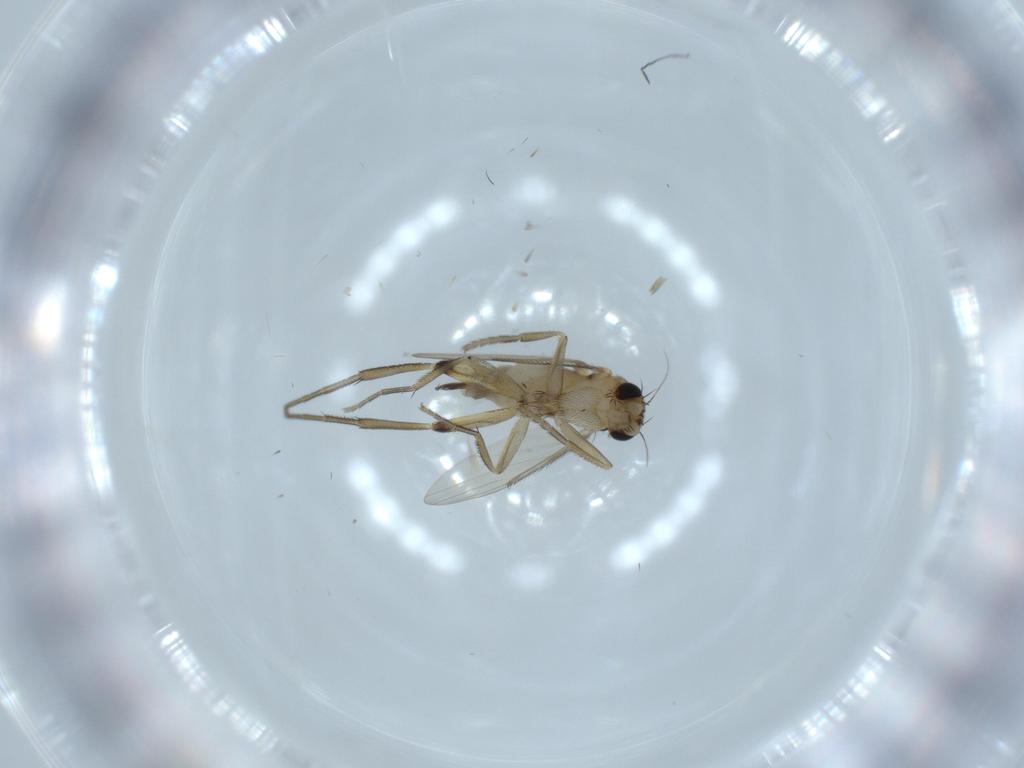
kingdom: Animalia
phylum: Arthropoda
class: Insecta
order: Diptera
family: Phoridae
